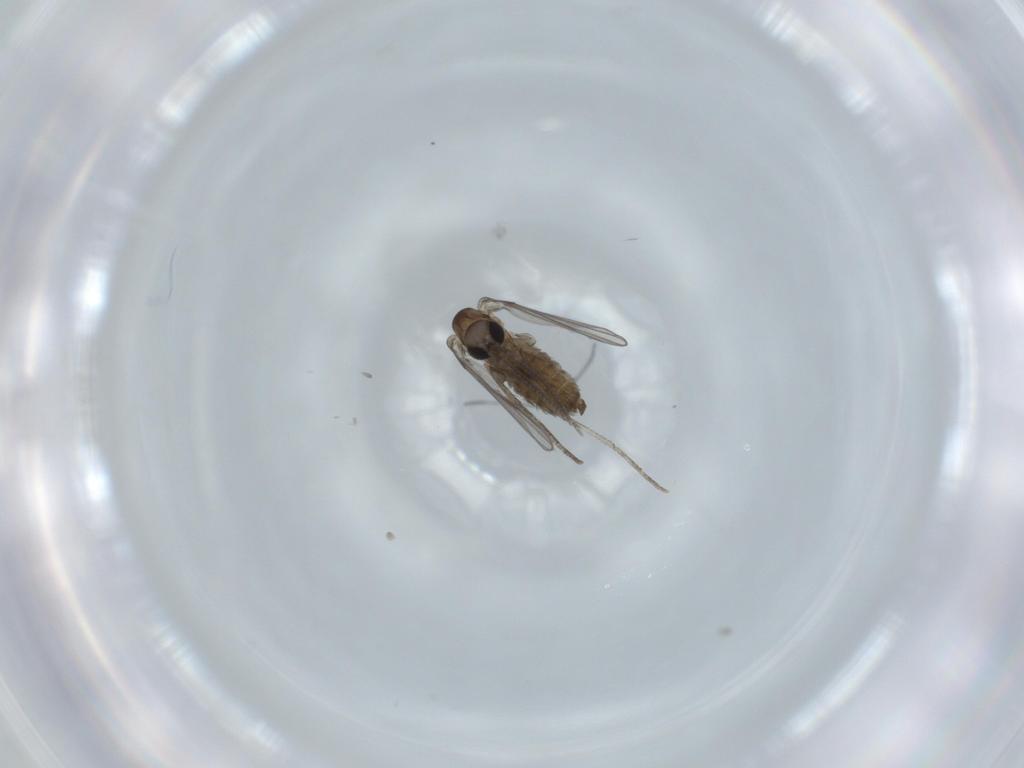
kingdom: Animalia
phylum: Arthropoda
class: Insecta
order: Diptera
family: Psychodidae
